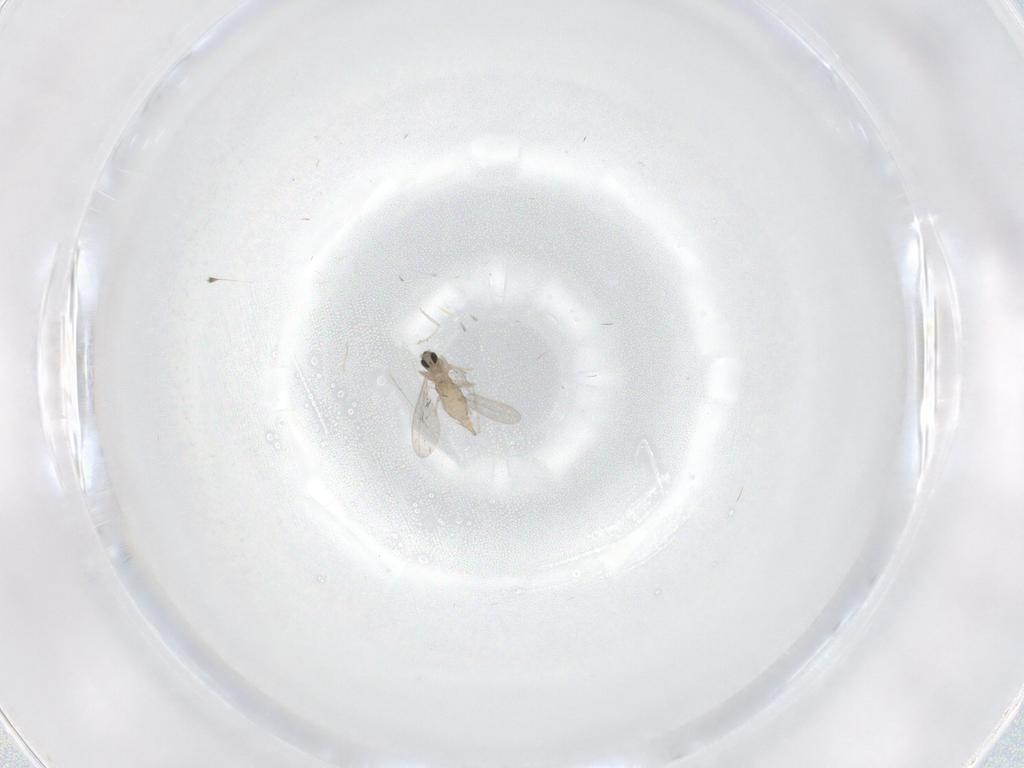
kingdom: Animalia
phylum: Arthropoda
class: Insecta
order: Diptera
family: Cecidomyiidae
